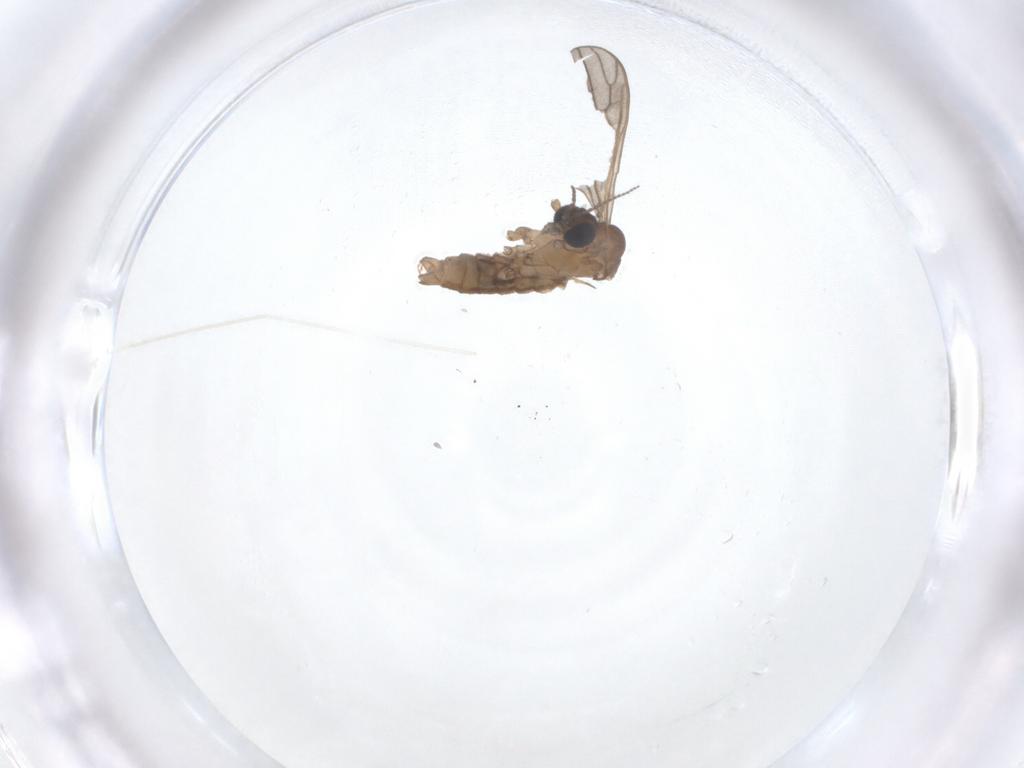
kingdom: Animalia
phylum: Arthropoda
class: Insecta
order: Diptera
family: Limoniidae
